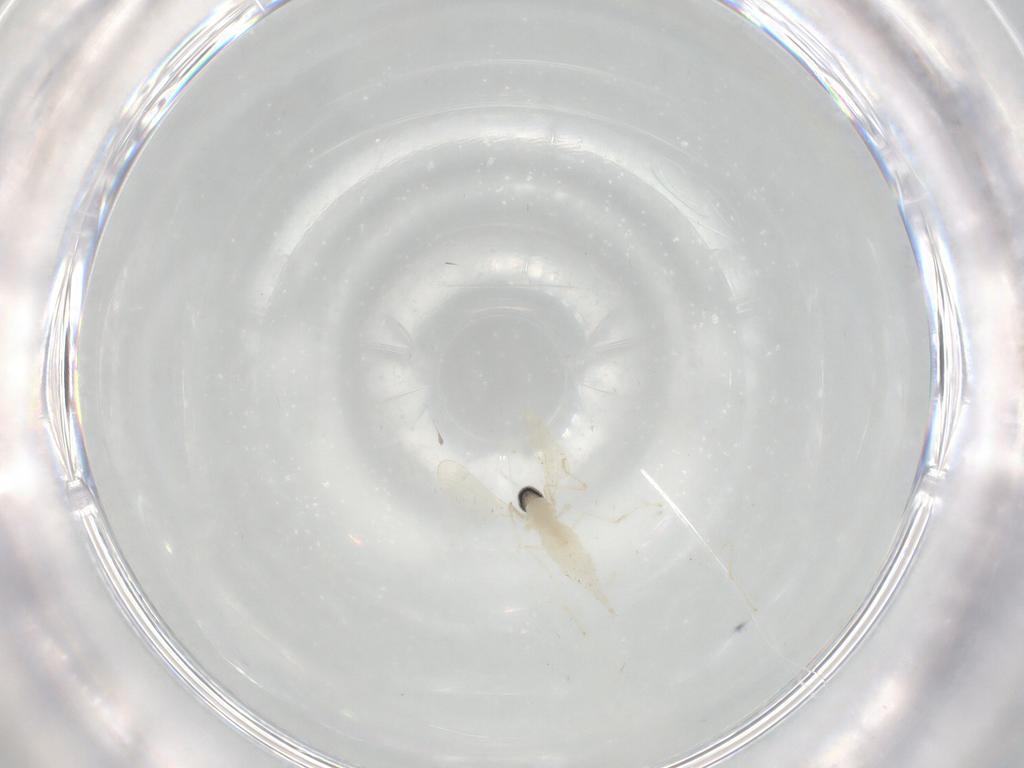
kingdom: Animalia
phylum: Arthropoda
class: Insecta
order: Diptera
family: Cecidomyiidae
